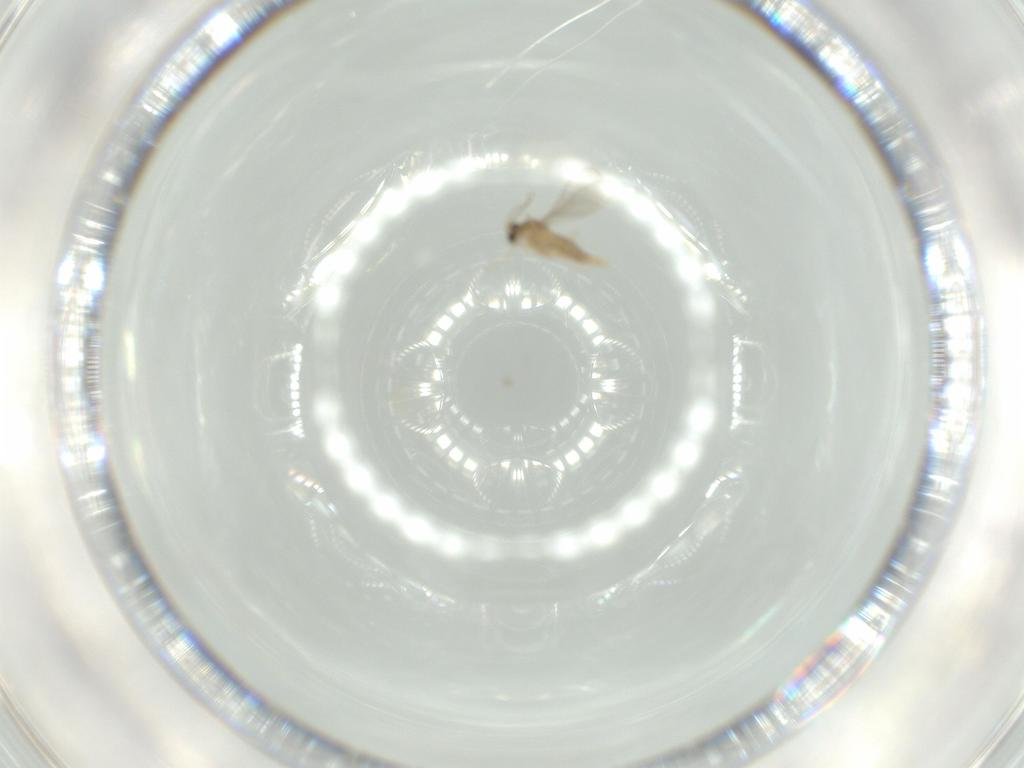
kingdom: Animalia
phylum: Arthropoda
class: Insecta
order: Diptera
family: Cecidomyiidae
